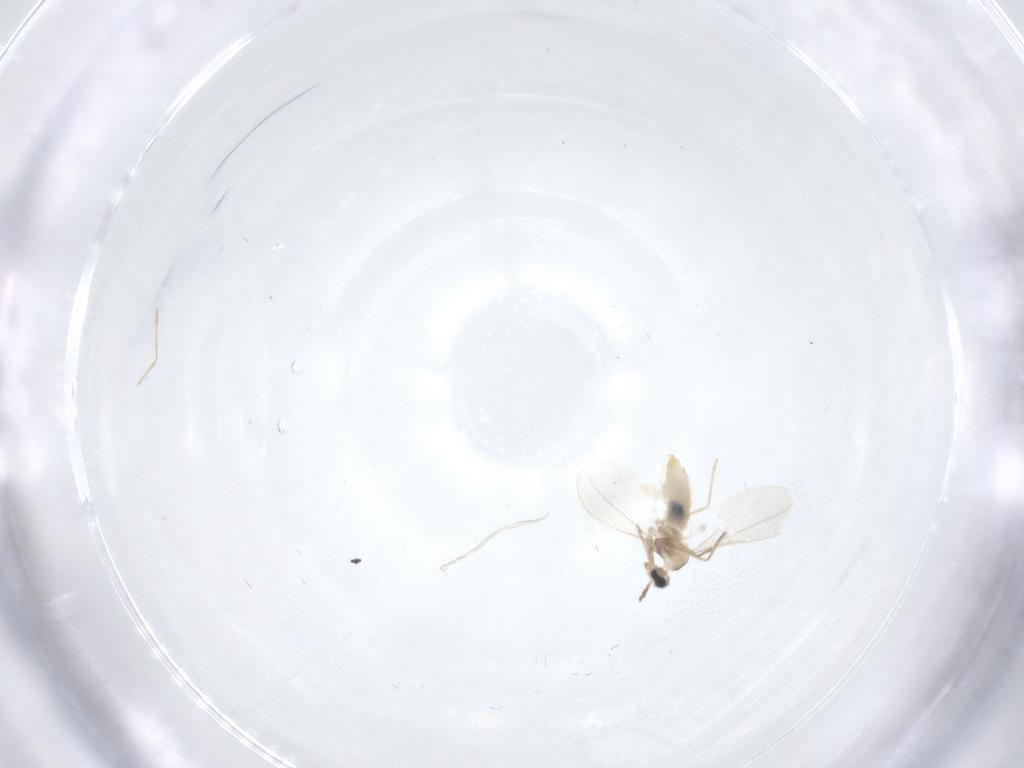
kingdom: Animalia
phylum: Arthropoda
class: Insecta
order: Diptera
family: Cecidomyiidae
